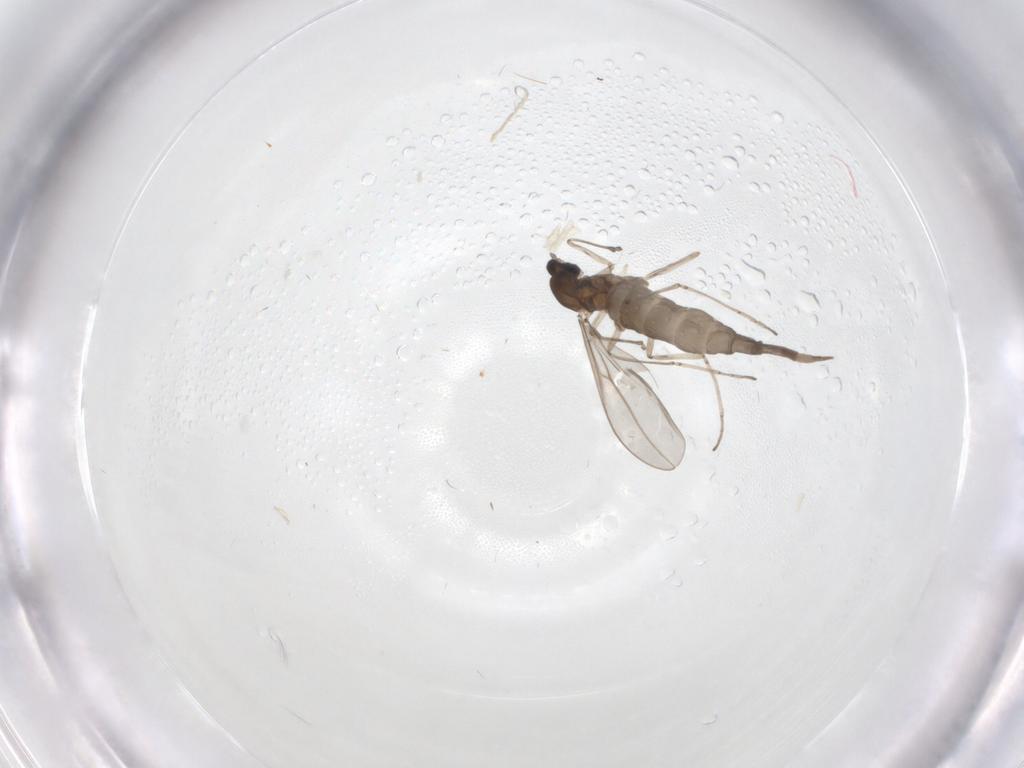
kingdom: Animalia
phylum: Arthropoda
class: Insecta
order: Diptera
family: Cecidomyiidae
